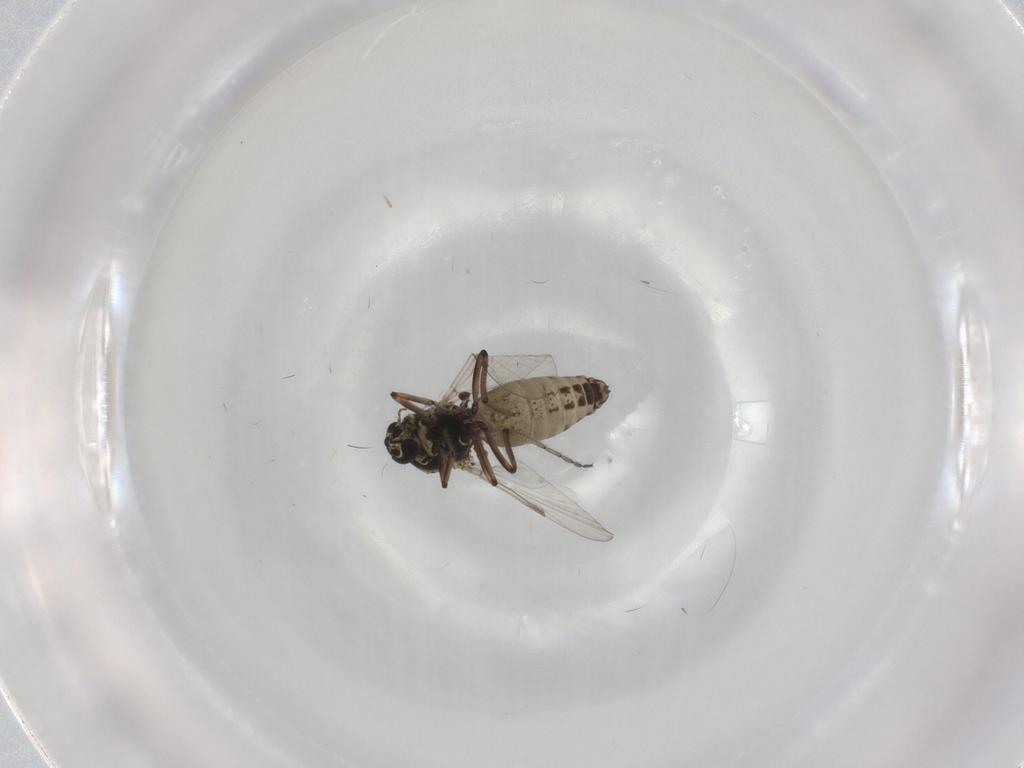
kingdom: Animalia
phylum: Arthropoda
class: Insecta
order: Diptera
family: Ceratopogonidae
